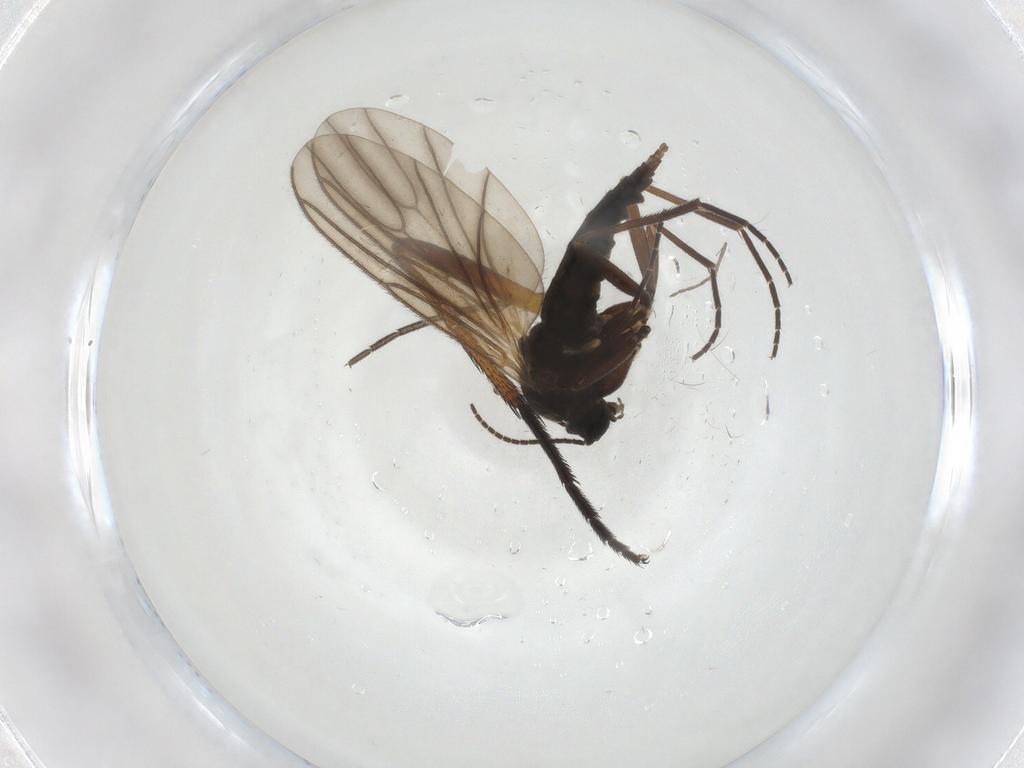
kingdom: Animalia
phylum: Arthropoda
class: Insecta
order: Diptera
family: Sciaridae
